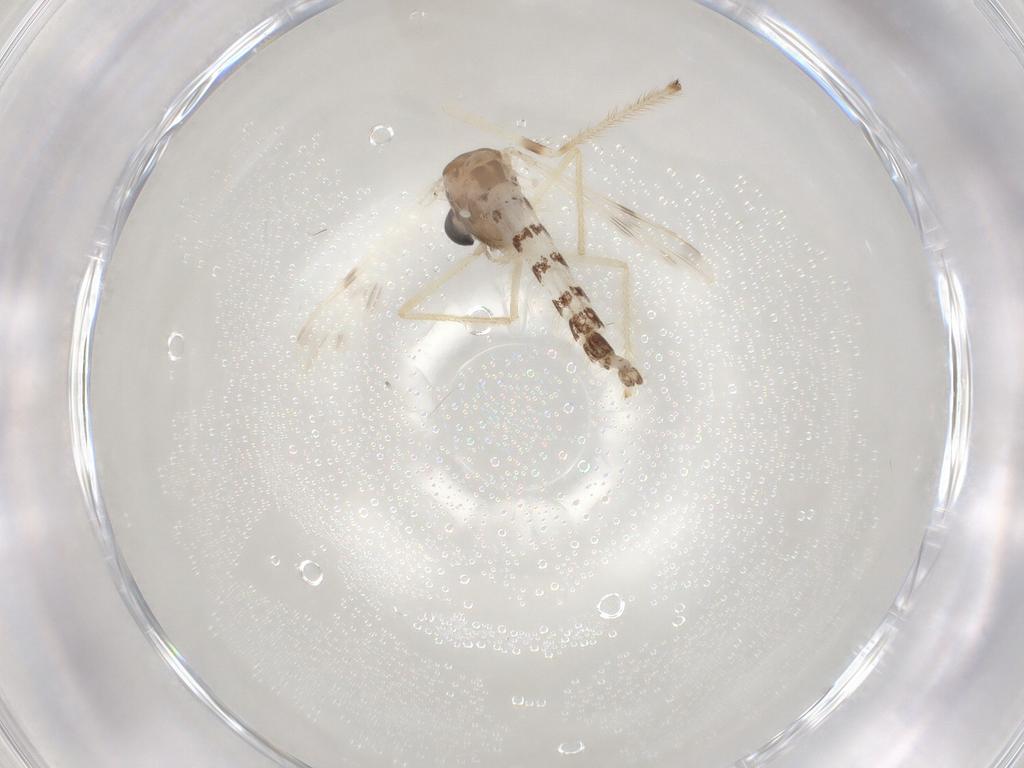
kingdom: Animalia
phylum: Arthropoda
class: Insecta
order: Diptera
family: Chironomidae
